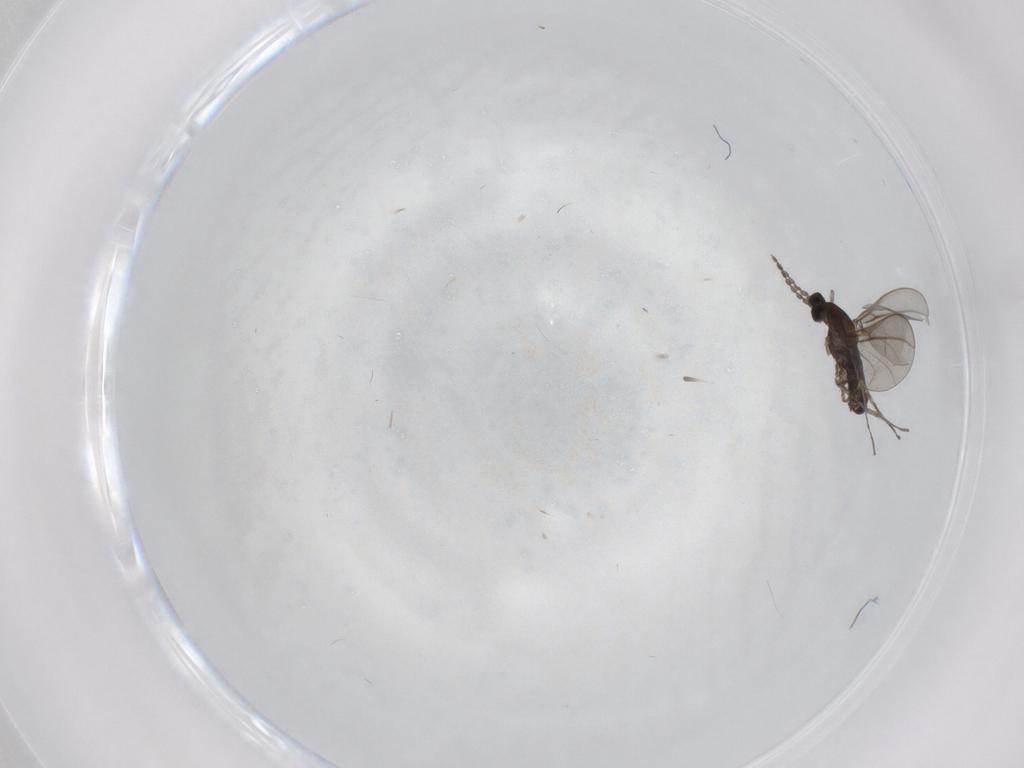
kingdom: Animalia
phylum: Arthropoda
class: Insecta
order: Diptera
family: Cecidomyiidae
